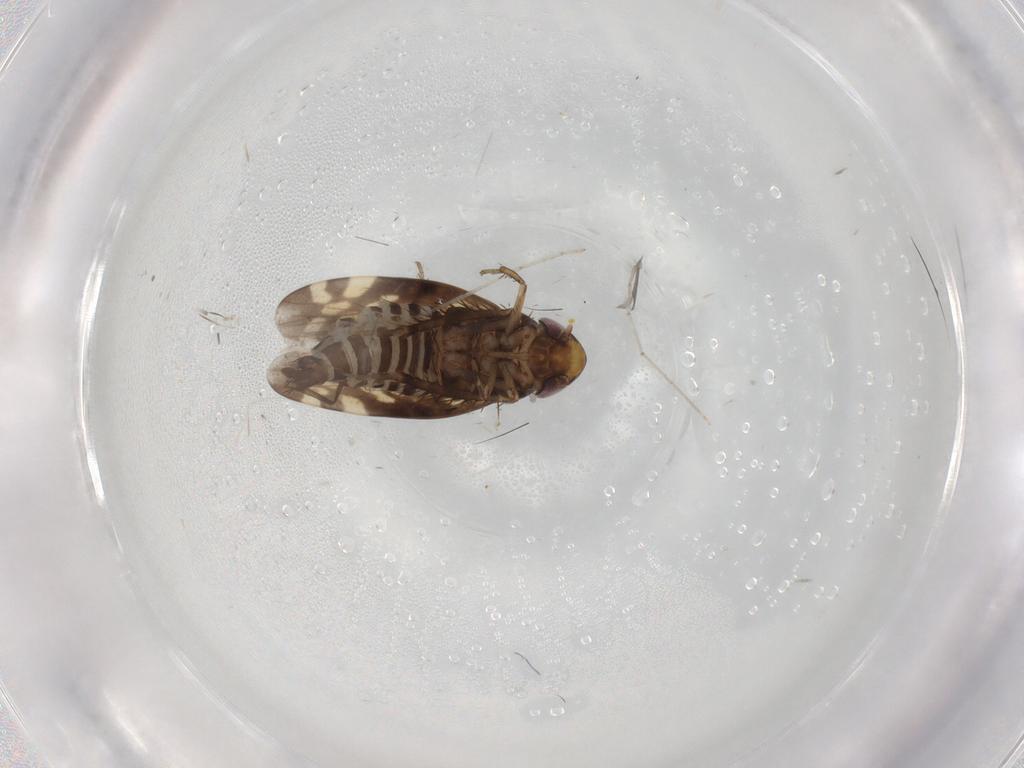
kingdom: Animalia
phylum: Arthropoda
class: Insecta
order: Hemiptera
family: Cicadellidae
